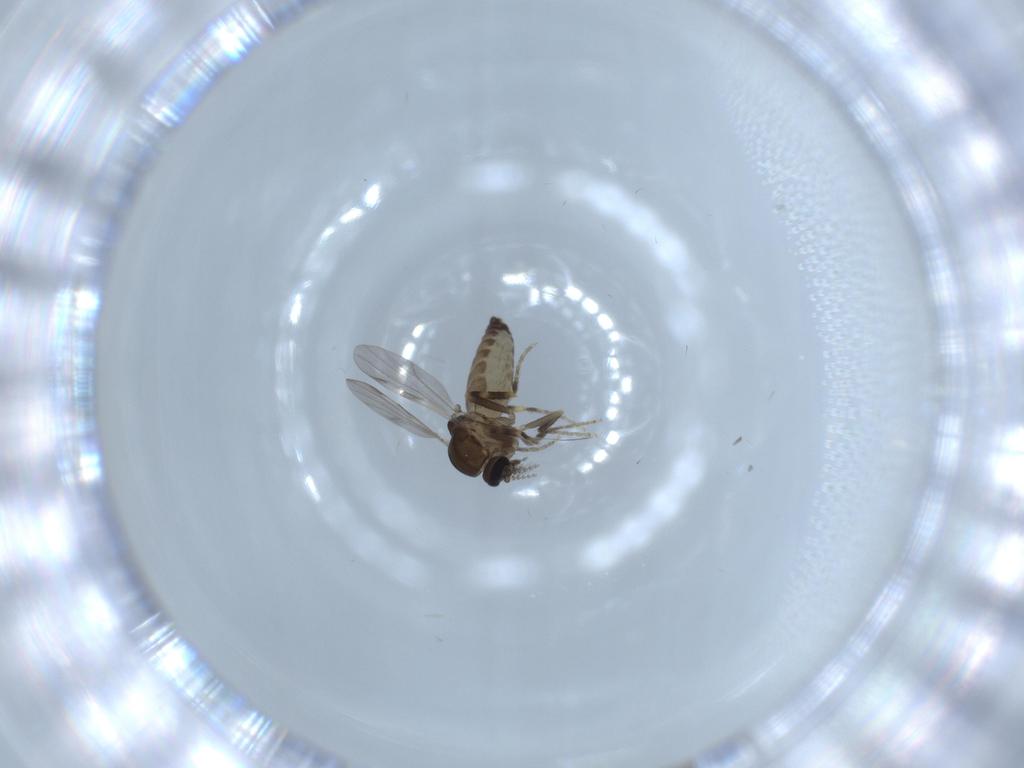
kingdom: Animalia
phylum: Arthropoda
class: Insecta
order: Diptera
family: Ceratopogonidae
